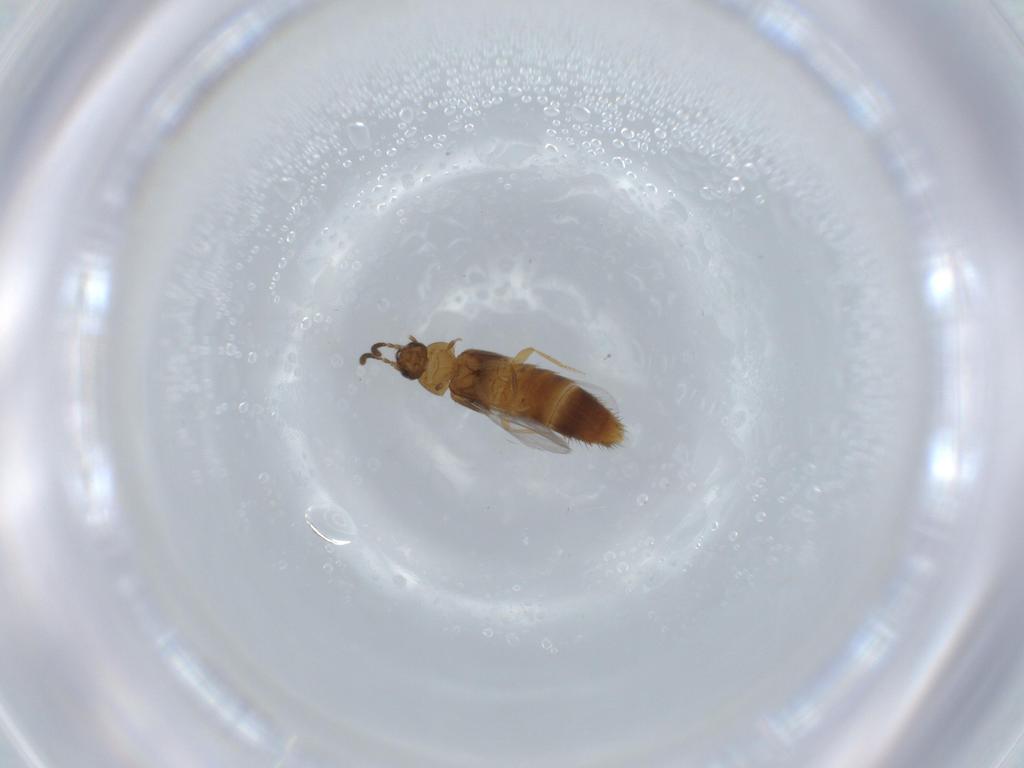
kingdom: Animalia
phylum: Arthropoda
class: Insecta
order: Coleoptera
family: Staphylinidae
